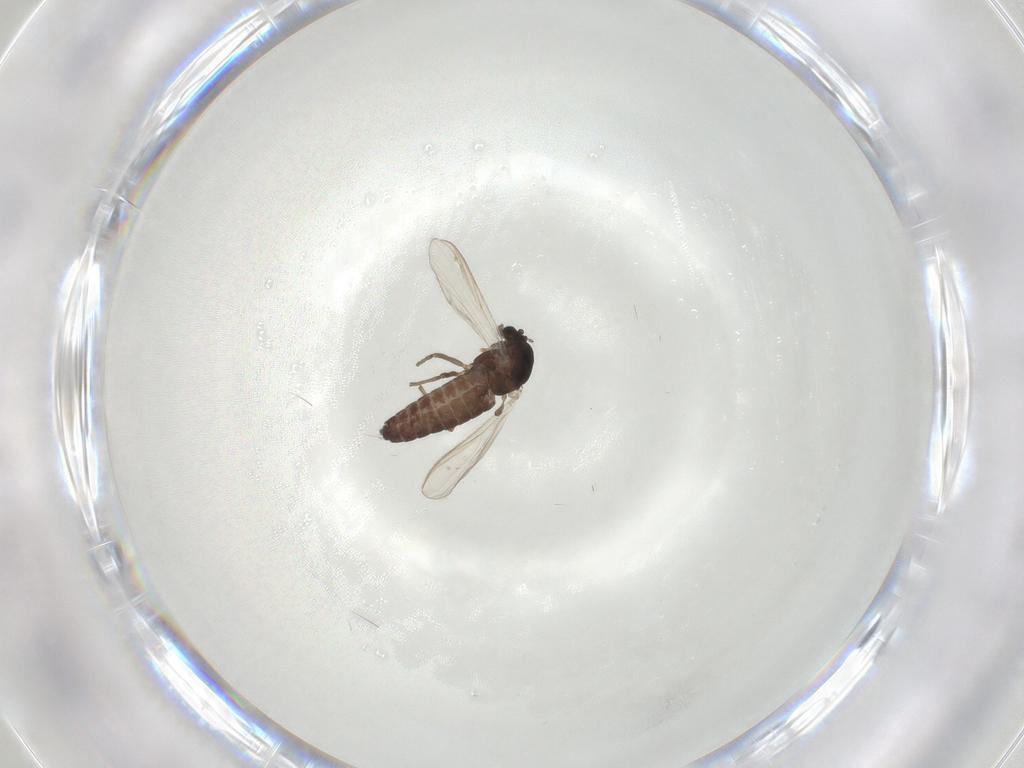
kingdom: Animalia
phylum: Arthropoda
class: Insecta
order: Diptera
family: Chironomidae
